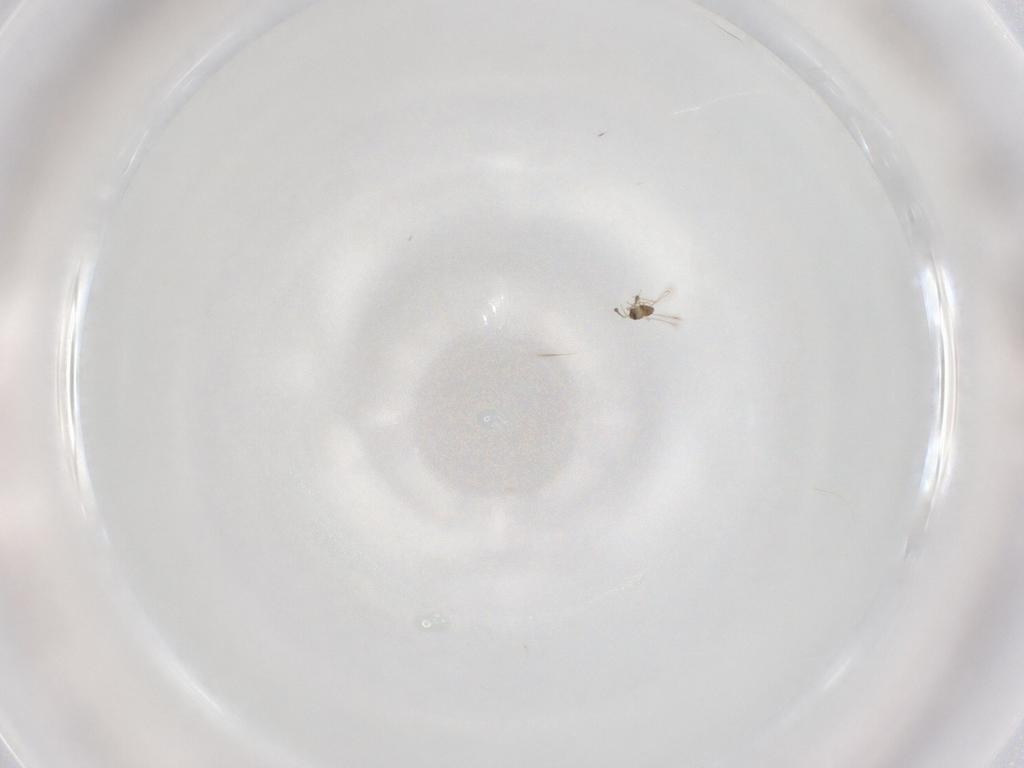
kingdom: Animalia
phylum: Arthropoda
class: Insecta
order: Hymenoptera
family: Mymaridae
